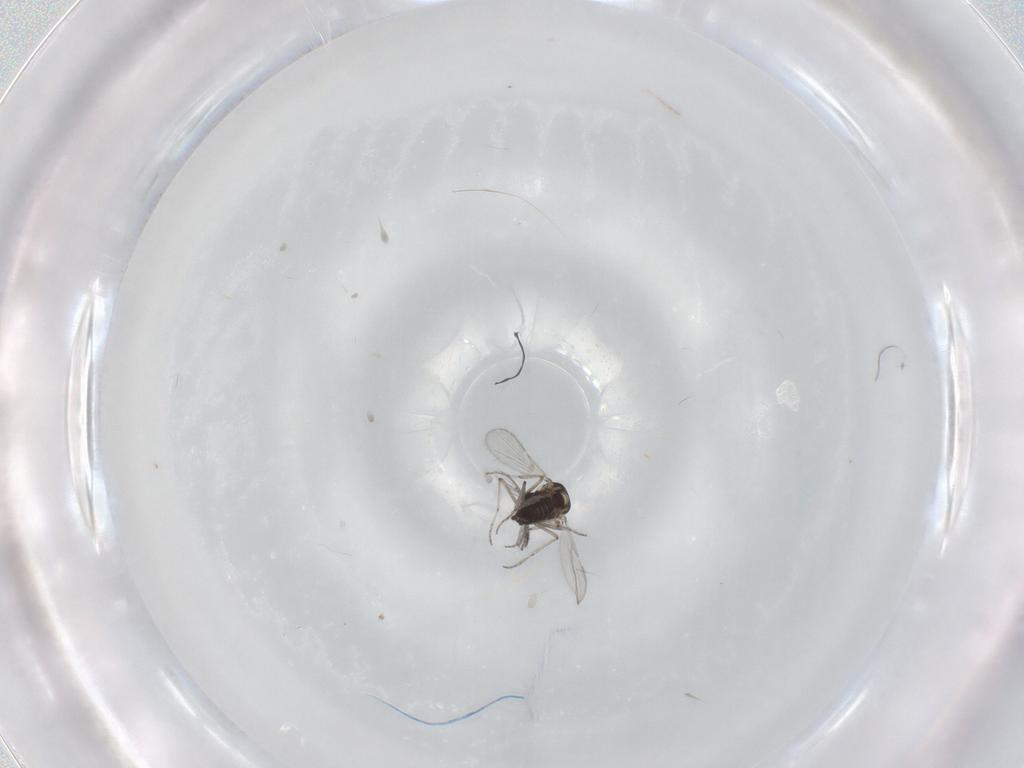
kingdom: Animalia
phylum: Arthropoda
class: Insecta
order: Diptera
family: Ceratopogonidae
